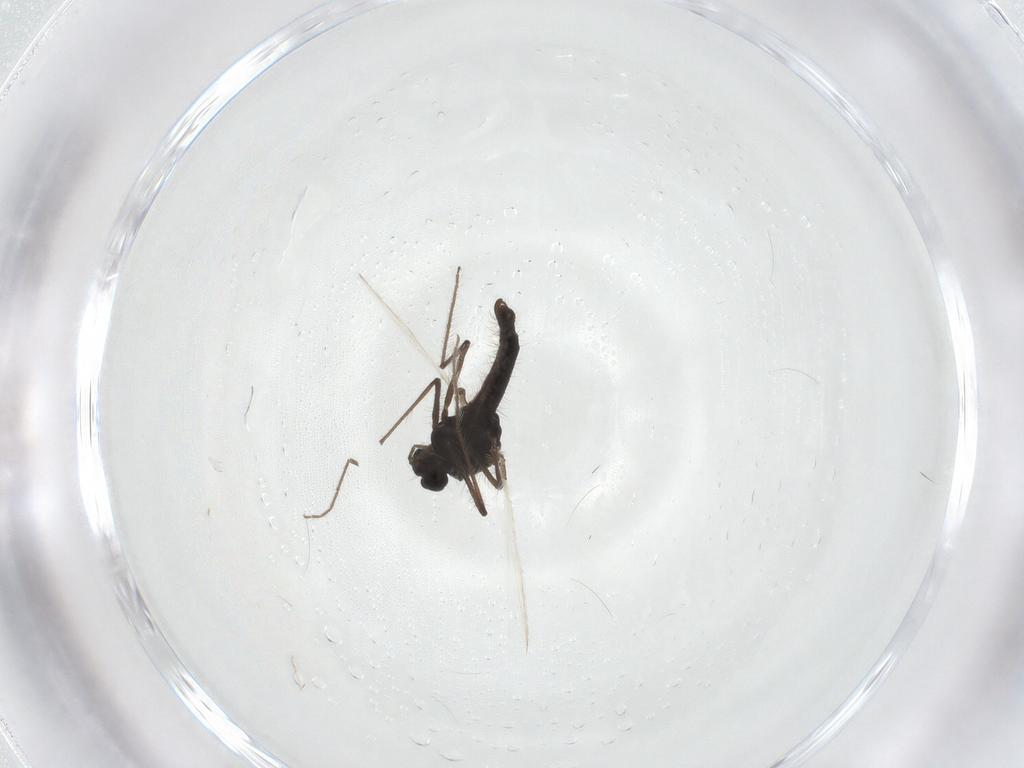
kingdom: Animalia
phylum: Arthropoda
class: Insecta
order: Diptera
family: Chironomidae
